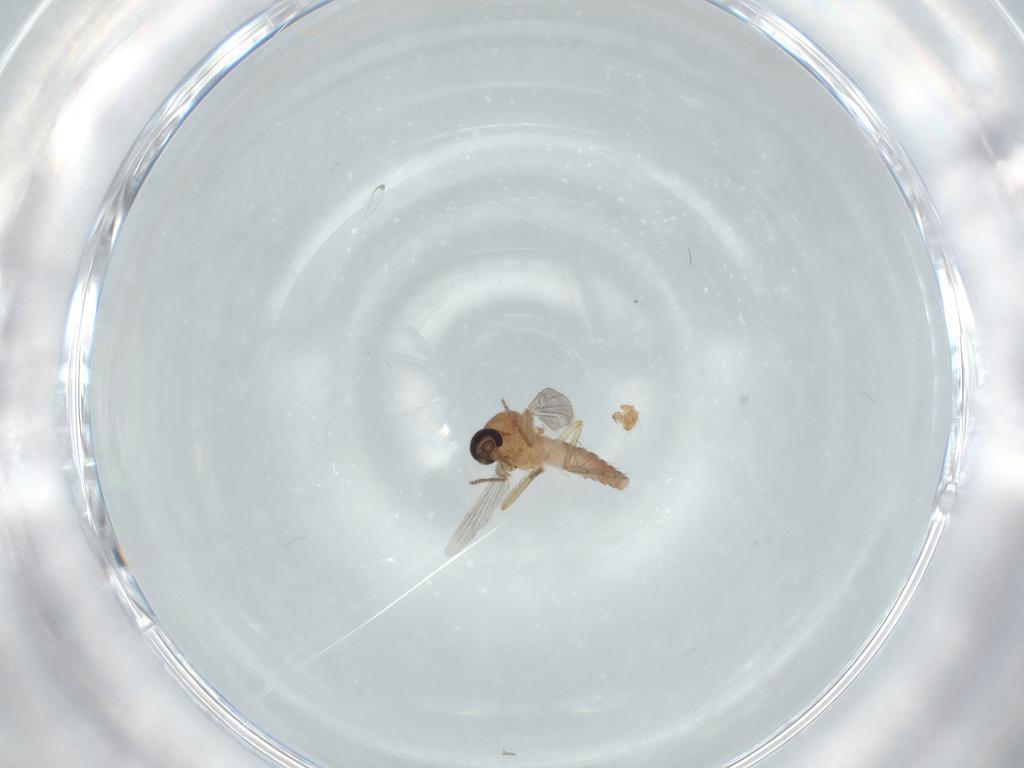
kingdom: Animalia
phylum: Arthropoda
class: Insecta
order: Diptera
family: Ceratopogonidae
